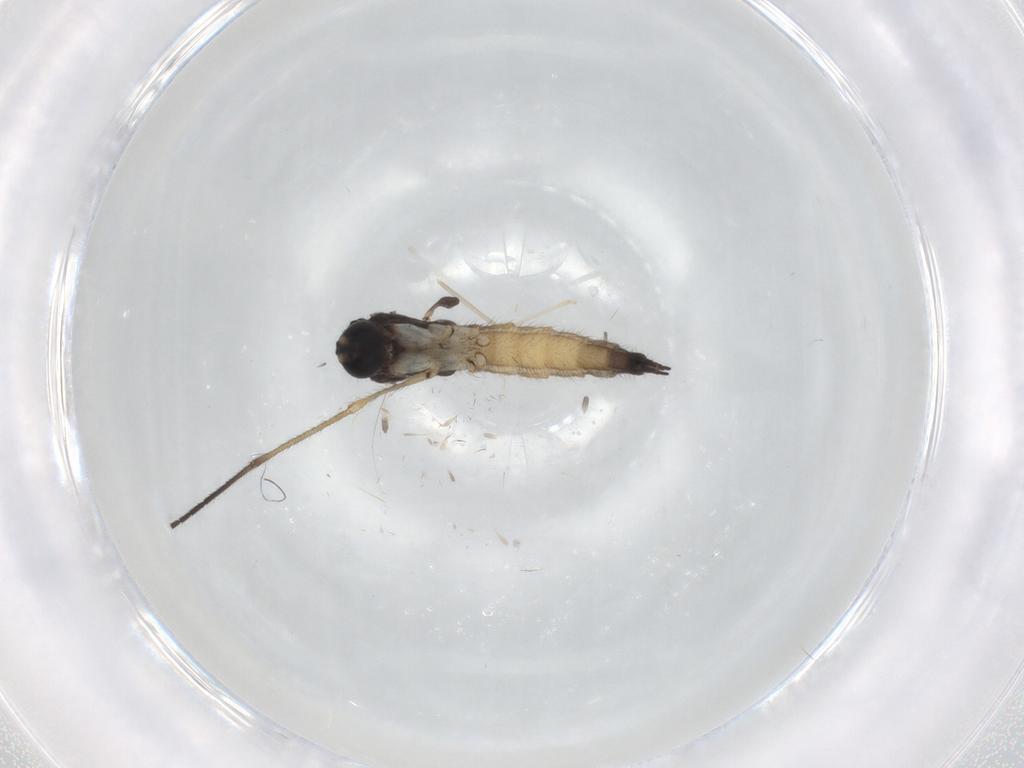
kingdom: Animalia
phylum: Arthropoda
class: Insecta
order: Diptera
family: Sciaridae
